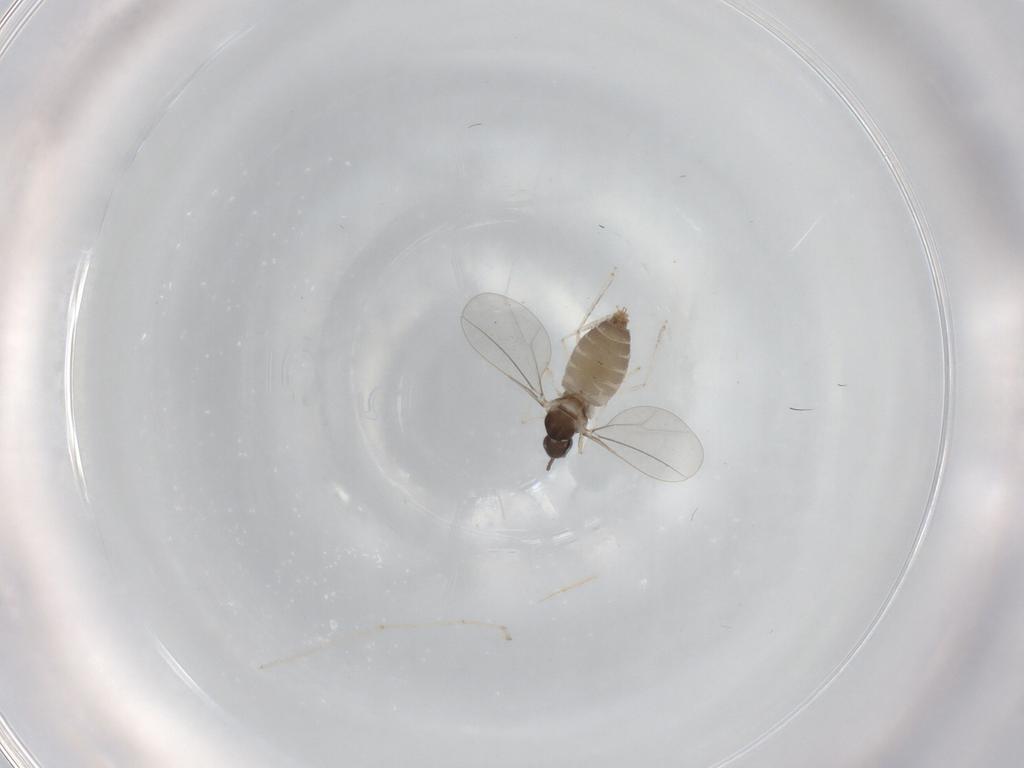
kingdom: Animalia
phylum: Arthropoda
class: Insecta
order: Diptera
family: Cecidomyiidae
